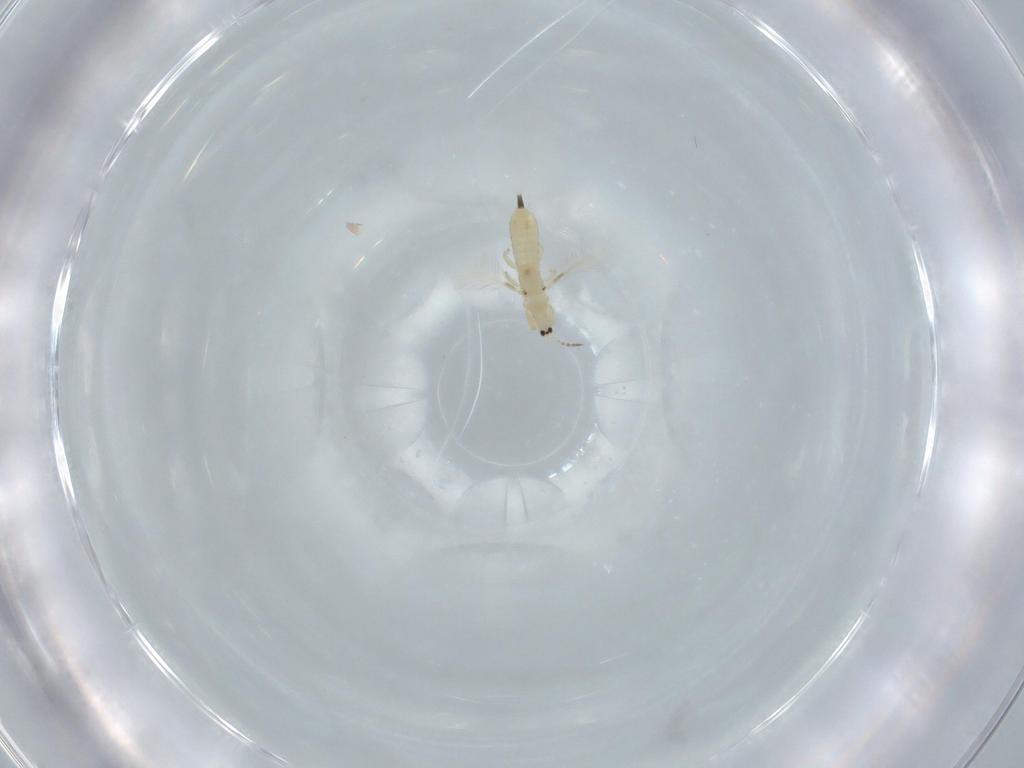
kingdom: Animalia
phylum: Arthropoda
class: Insecta
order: Thysanoptera
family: Phlaeothripidae
